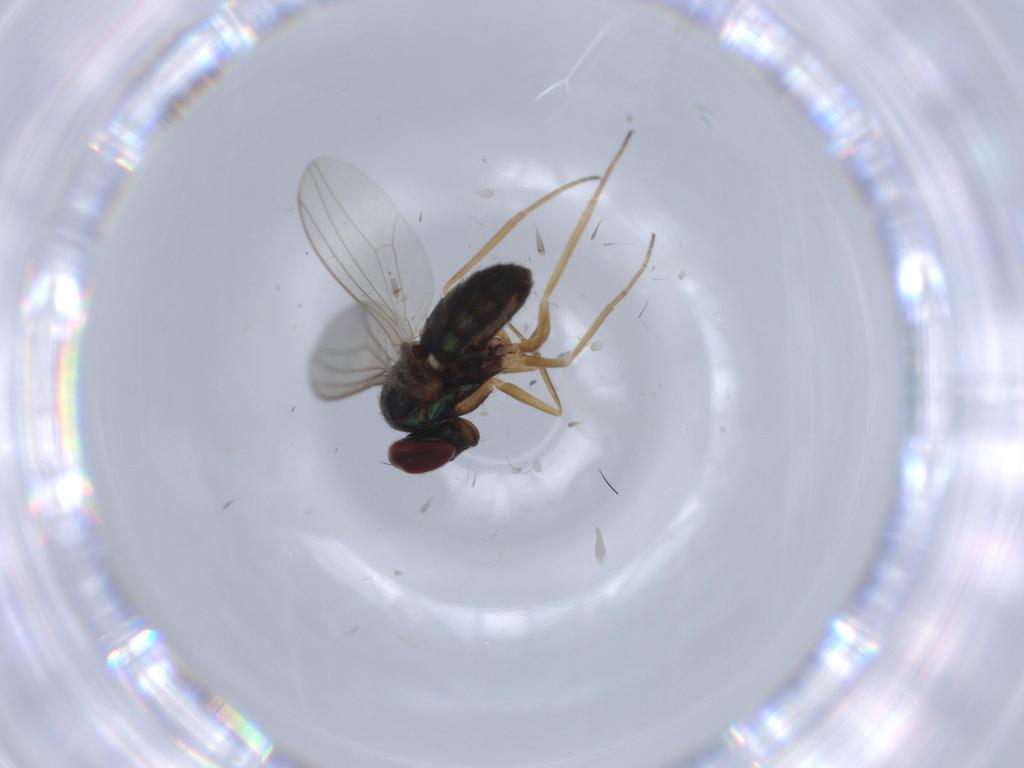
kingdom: Animalia
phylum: Arthropoda
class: Insecta
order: Diptera
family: Dolichopodidae
